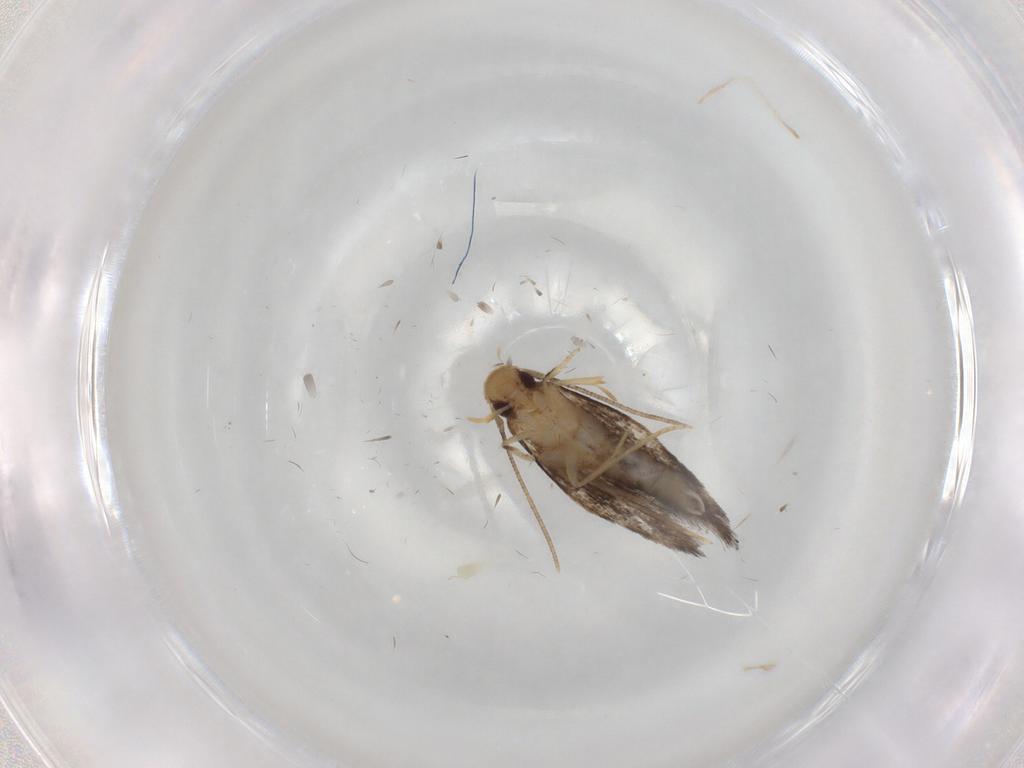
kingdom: Animalia
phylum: Arthropoda
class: Insecta
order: Lepidoptera
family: Gelechiidae
